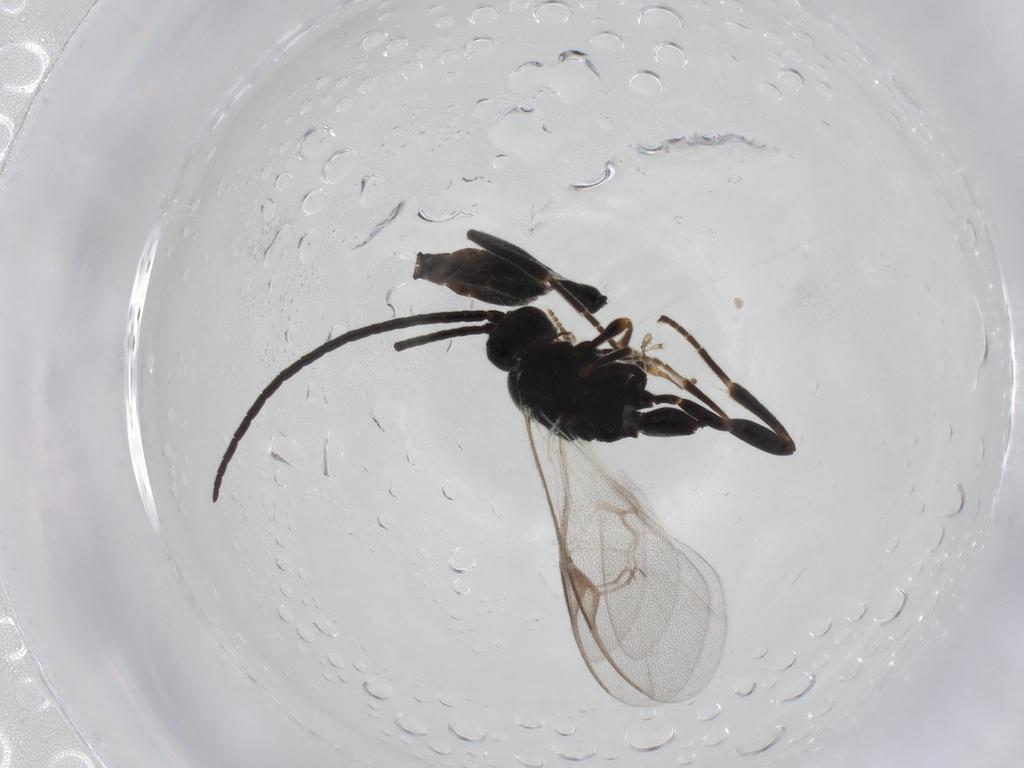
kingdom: Animalia
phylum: Arthropoda
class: Insecta
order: Hymenoptera
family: Braconidae
